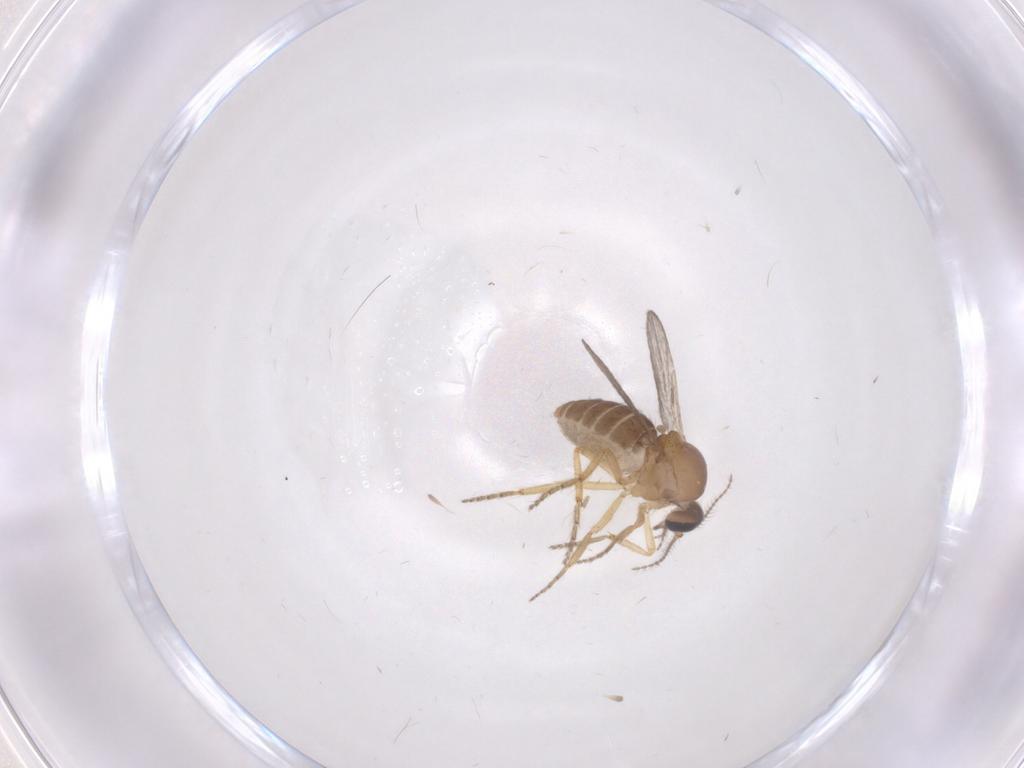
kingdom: Animalia
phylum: Arthropoda
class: Insecta
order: Diptera
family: Ceratopogonidae
